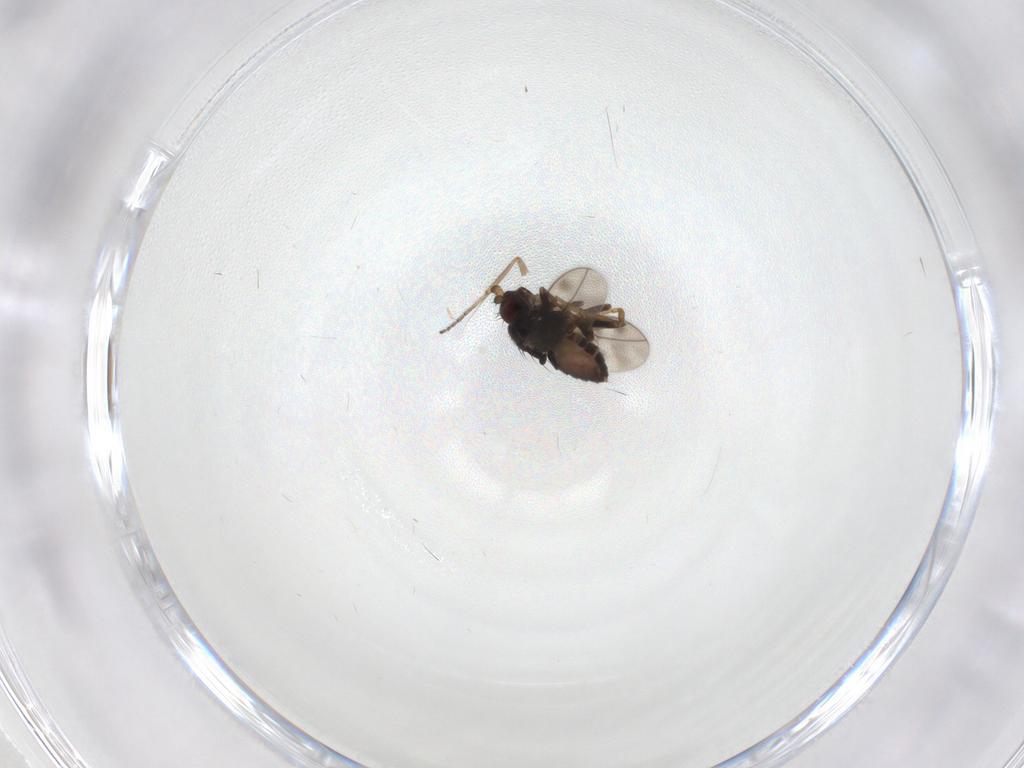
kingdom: Animalia
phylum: Arthropoda
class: Insecta
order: Diptera
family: Sphaeroceridae
